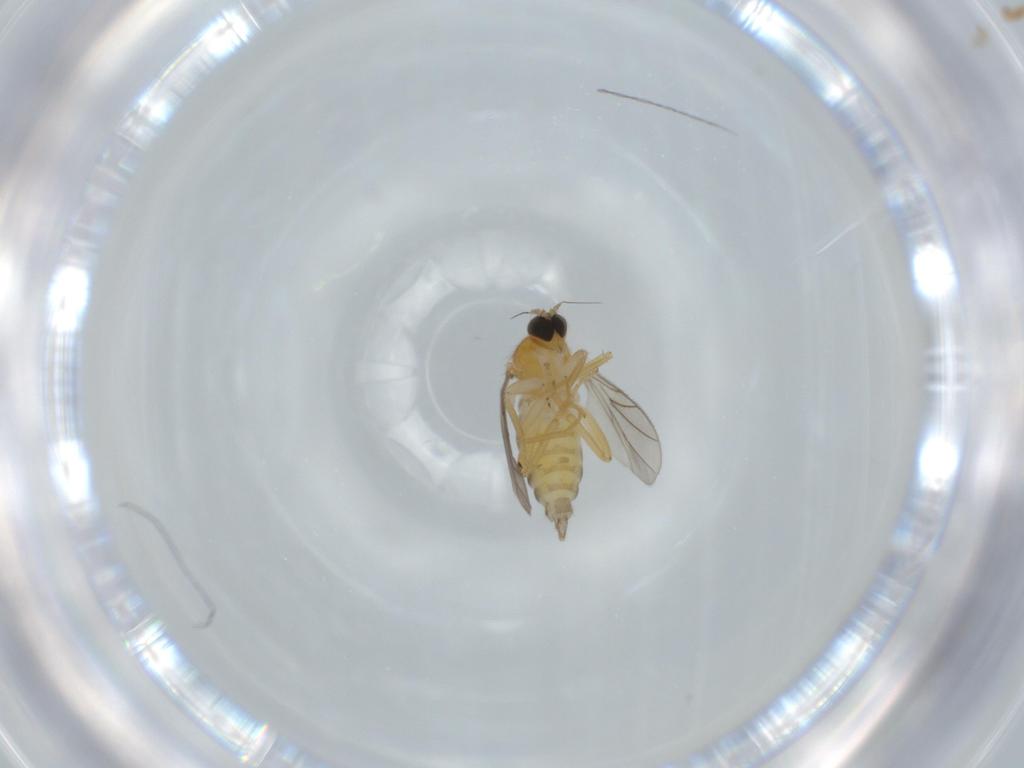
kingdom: Animalia
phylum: Arthropoda
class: Insecta
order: Diptera
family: Hybotidae
